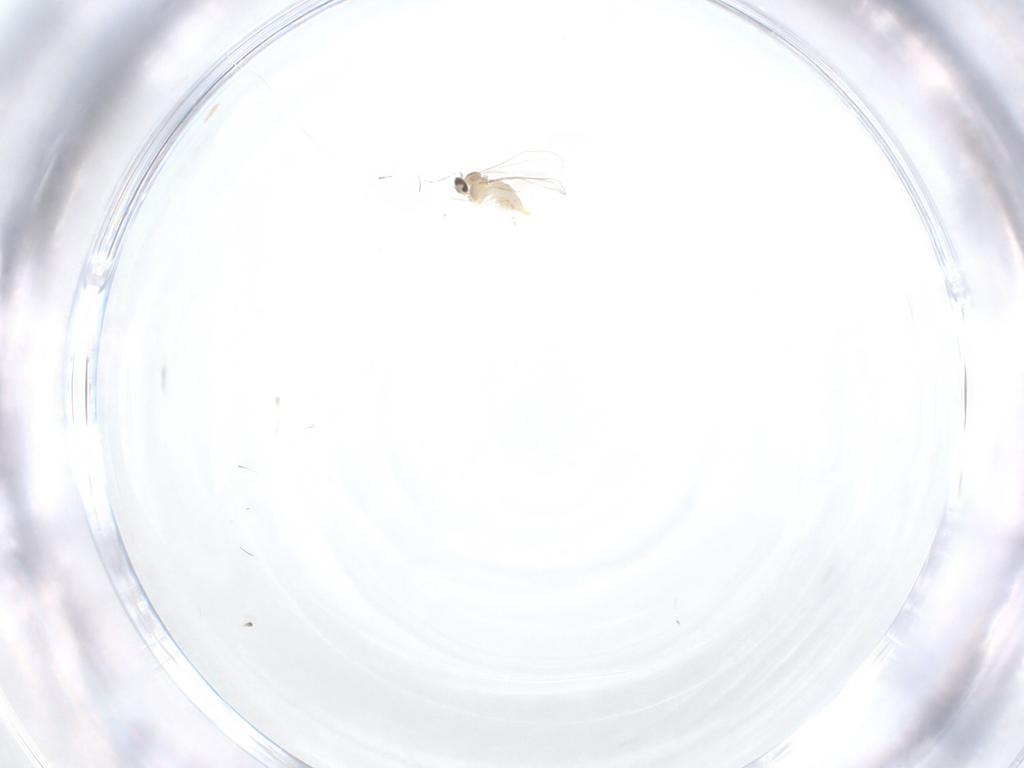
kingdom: Animalia
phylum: Arthropoda
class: Insecta
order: Diptera
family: Cecidomyiidae
